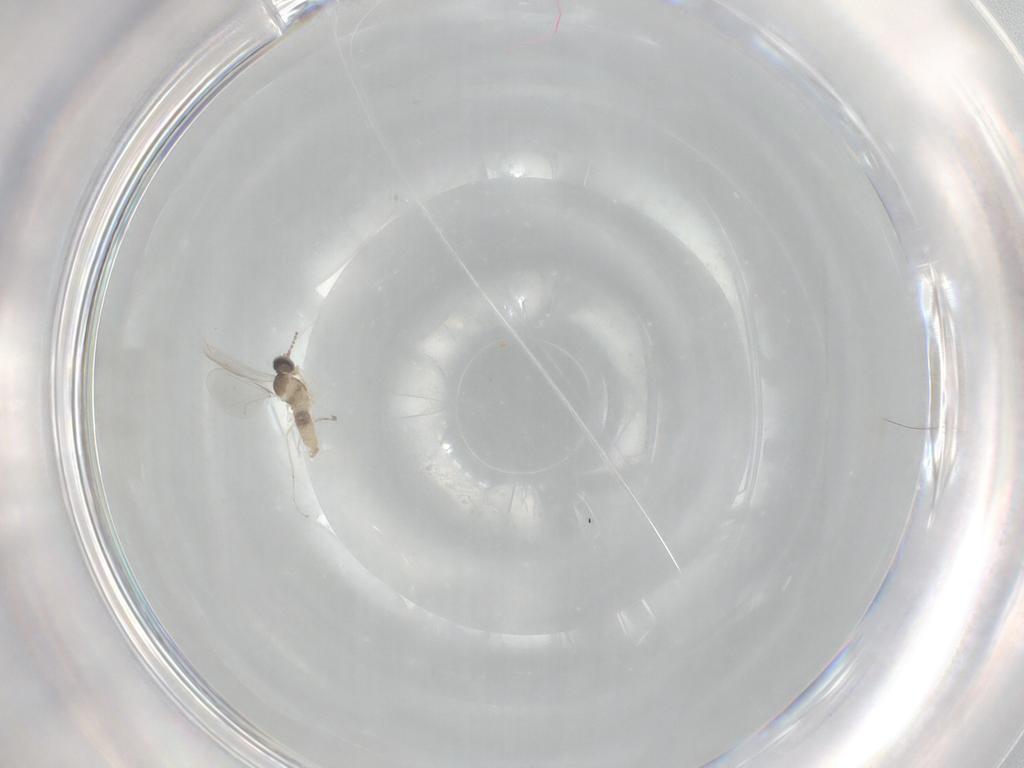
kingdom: Animalia
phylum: Arthropoda
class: Insecta
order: Diptera
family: Cecidomyiidae
